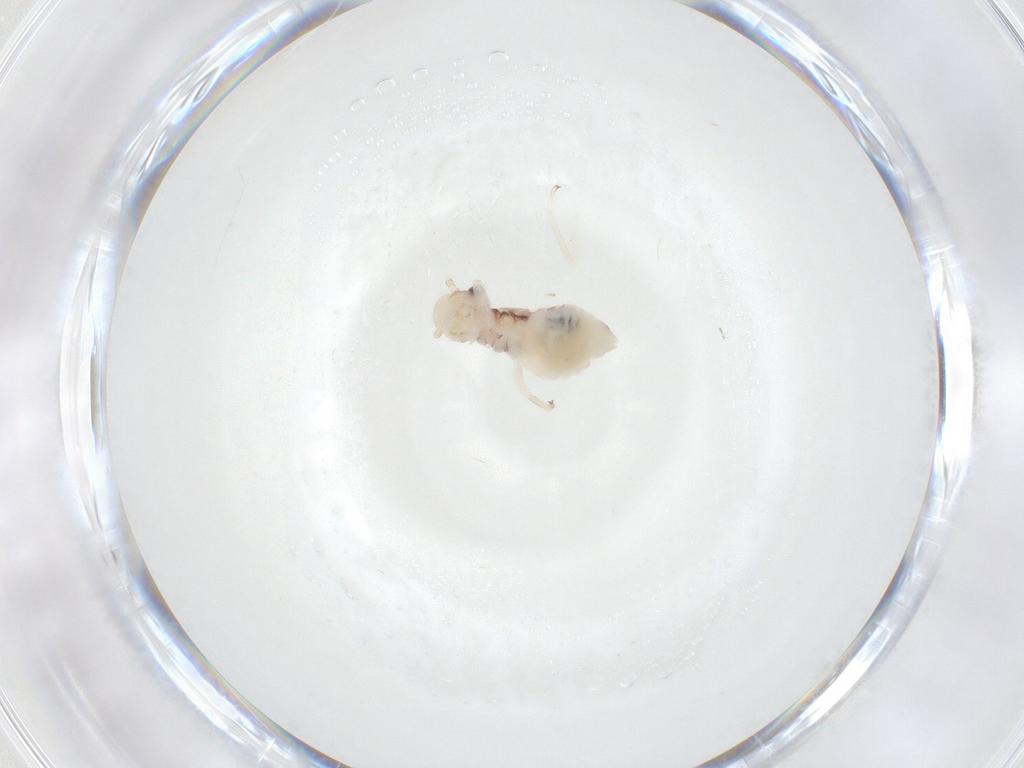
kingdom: Animalia
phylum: Arthropoda
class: Insecta
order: Psocodea
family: Amphipsocidae
